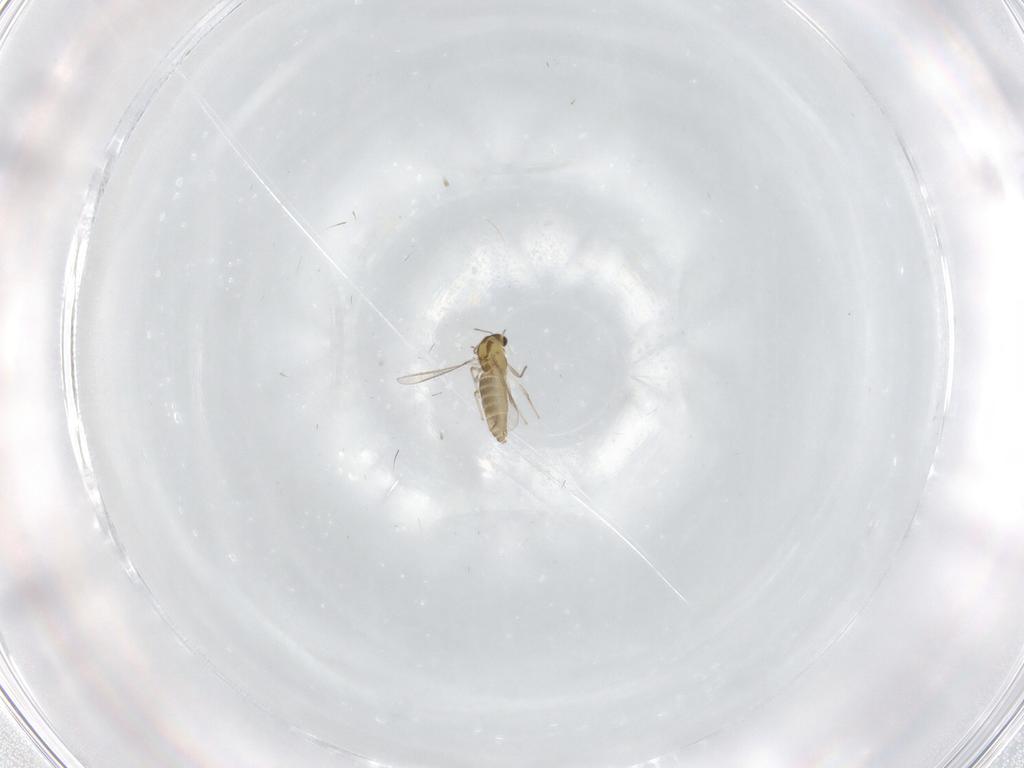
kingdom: Animalia
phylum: Arthropoda
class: Insecta
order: Diptera
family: Chironomidae
